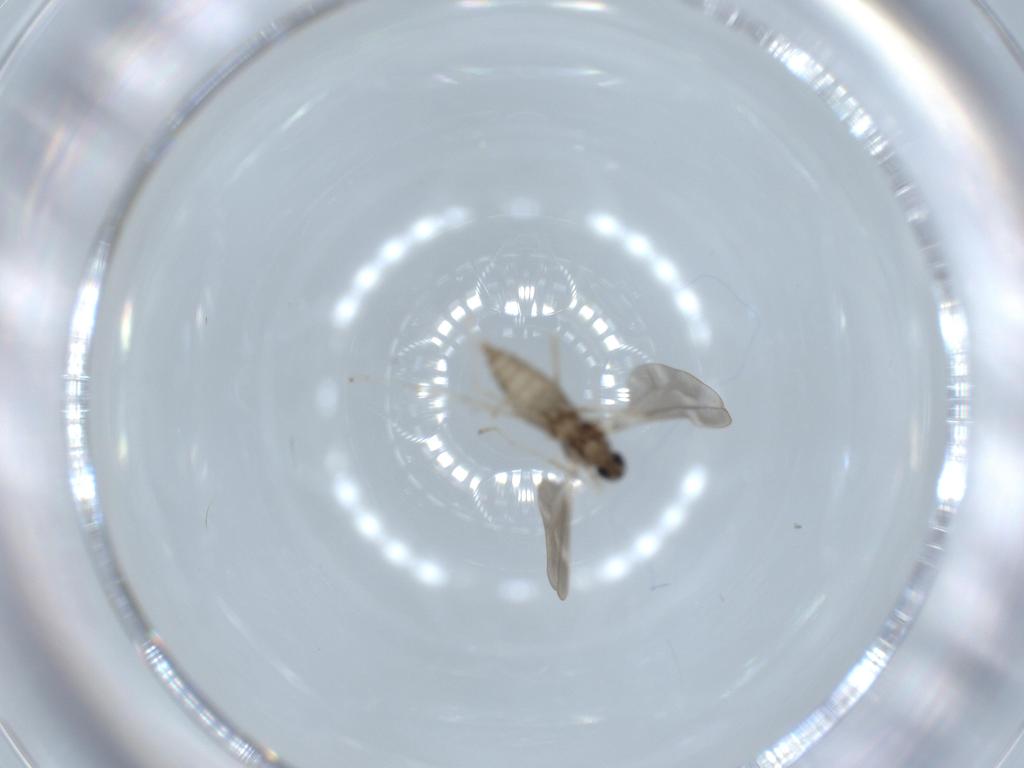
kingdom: Animalia
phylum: Arthropoda
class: Insecta
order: Diptera
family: Cecidomyiidae
